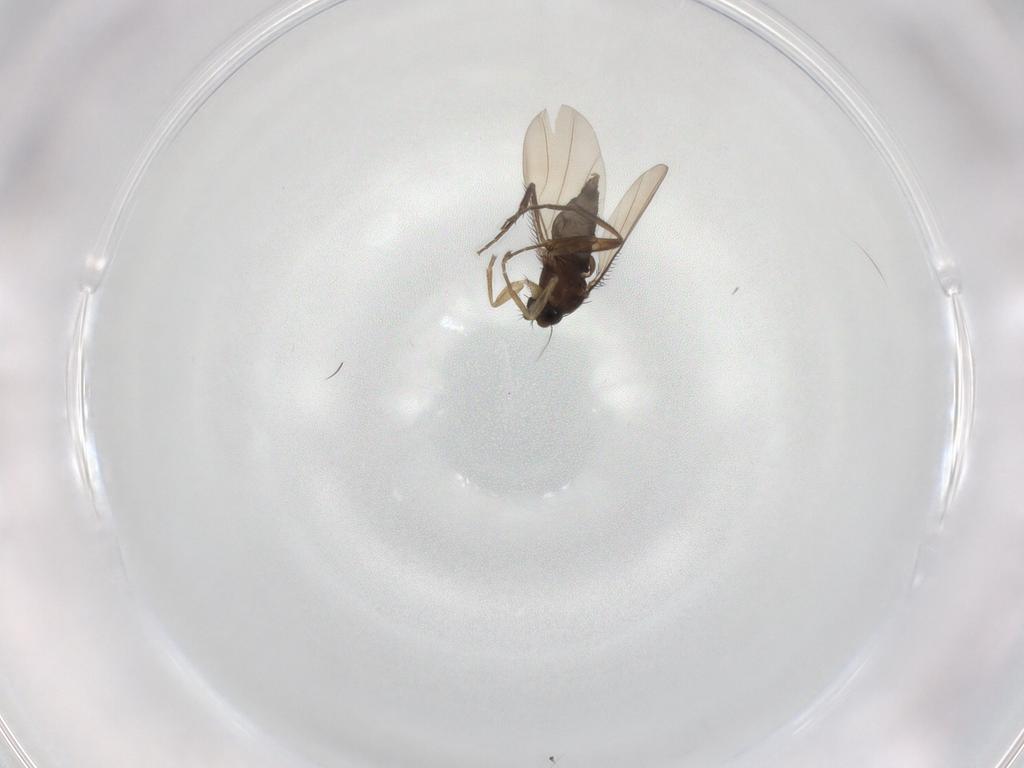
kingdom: Animalia
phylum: Arthropoda
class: Insecta
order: Diptera
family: Phoridae
